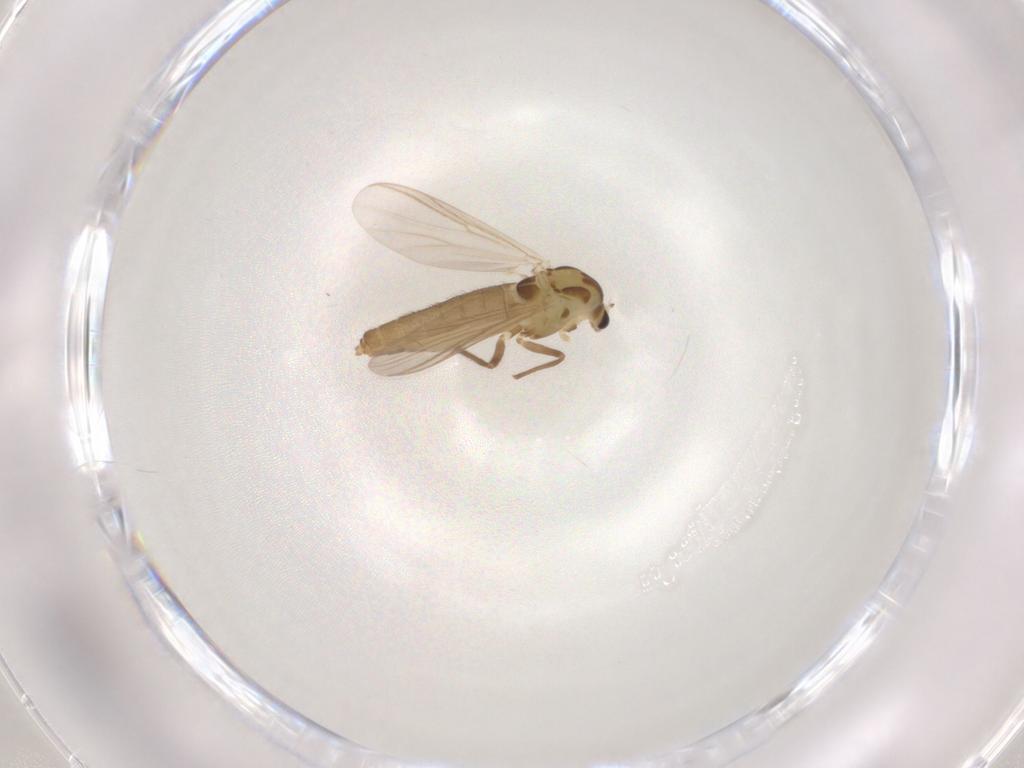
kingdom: Animalia
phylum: Arthropoda
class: Insecta
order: Diptera
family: Chironomidae
